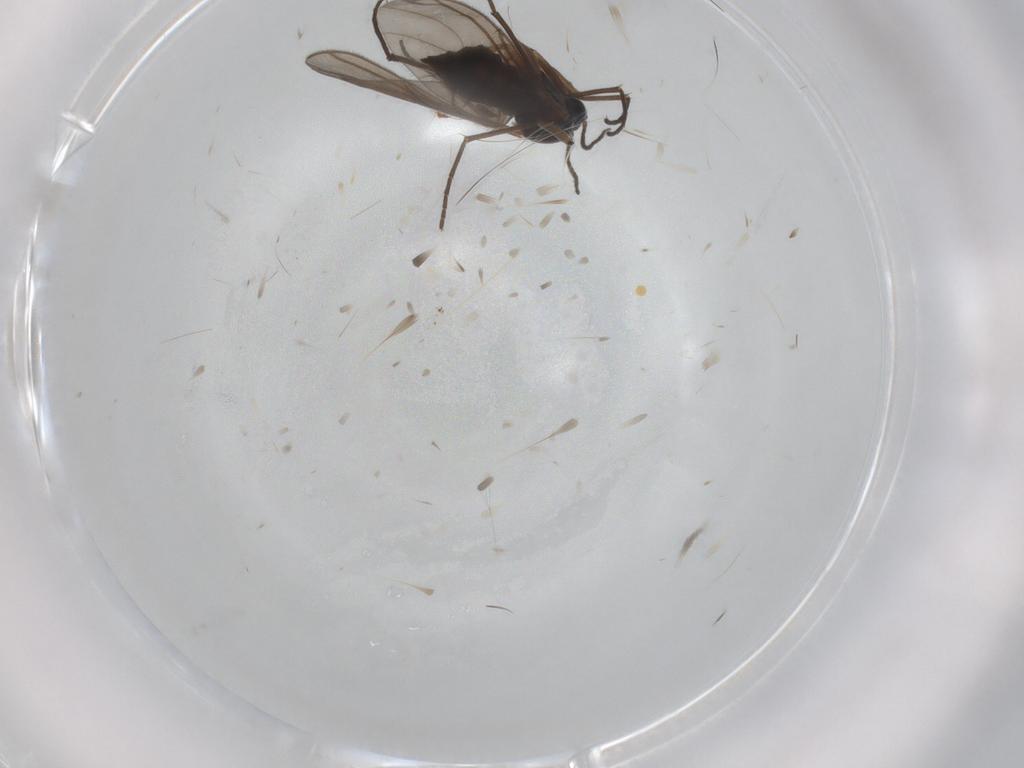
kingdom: Animalia
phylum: Arthropoda
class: Insecta
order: Diptera
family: Sciaridae
